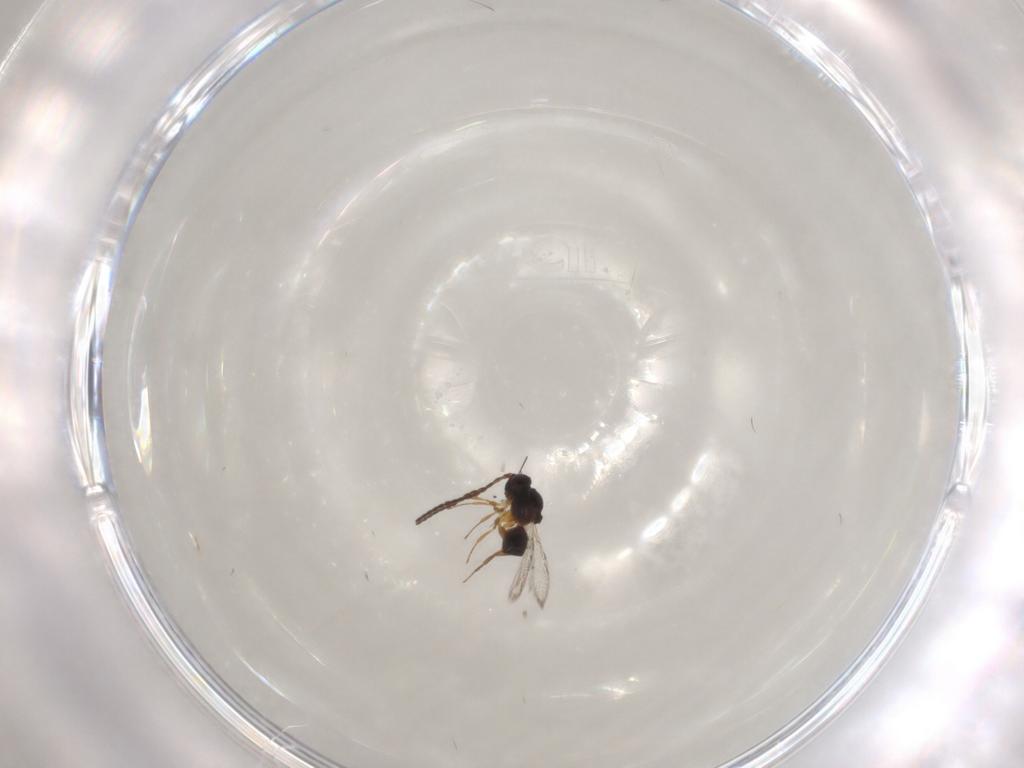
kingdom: Animalia
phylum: Arthropoda
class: Insecta
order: Hymenoptera
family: Figitidae
